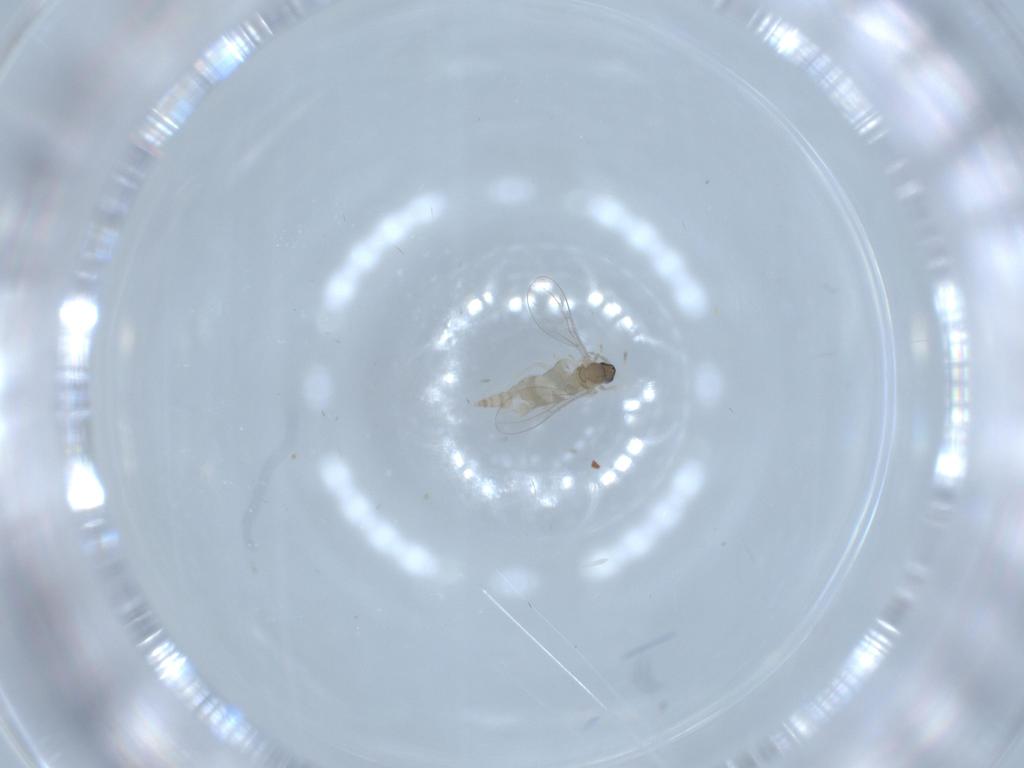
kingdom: Animalia
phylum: Arthropoda
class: Insecta
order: Diptera
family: Cecidomyiidae
